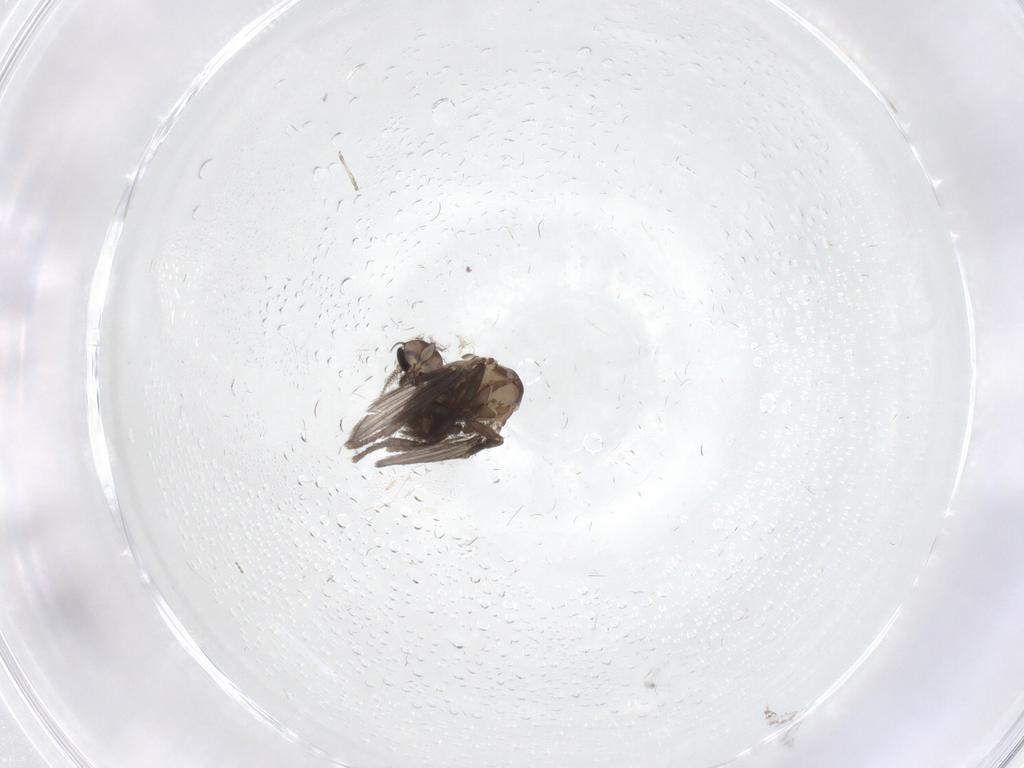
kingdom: Animalia
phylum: Arthropoda
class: Insecta
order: Diptera
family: Psychodidae
